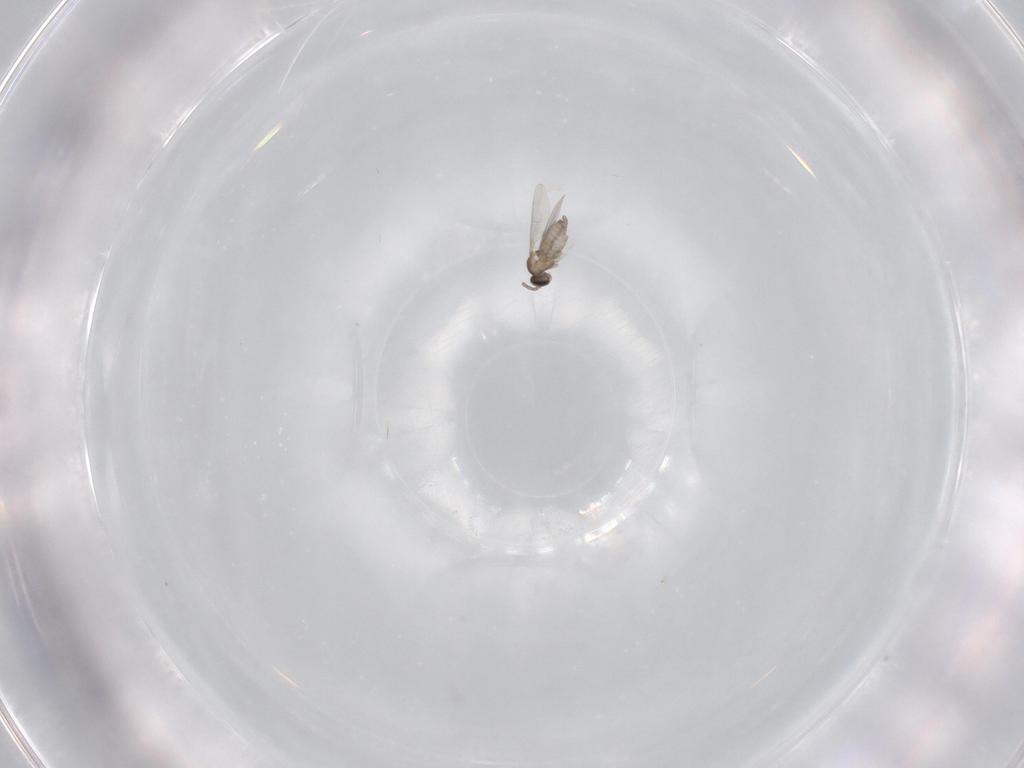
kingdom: Animalia
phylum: Arthropoda
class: Insecta
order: Diptera
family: Cecidomyiidae
